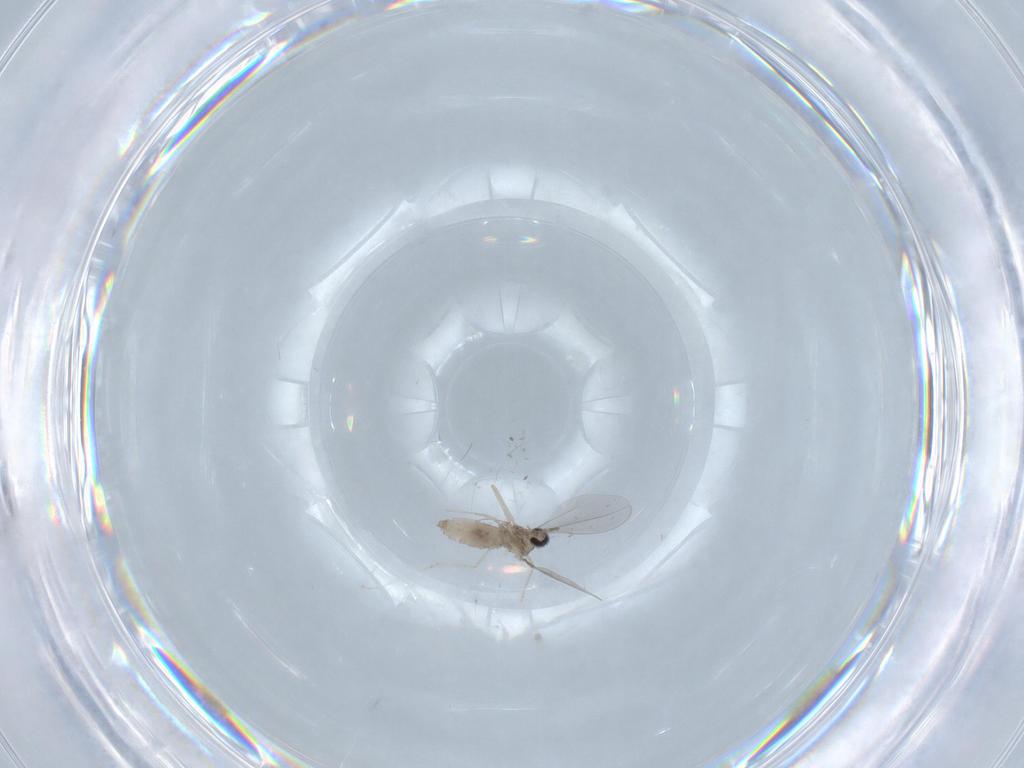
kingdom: Animalia
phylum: Arthropoda
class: Insecta
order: Diptera
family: Cecidomyiidae
